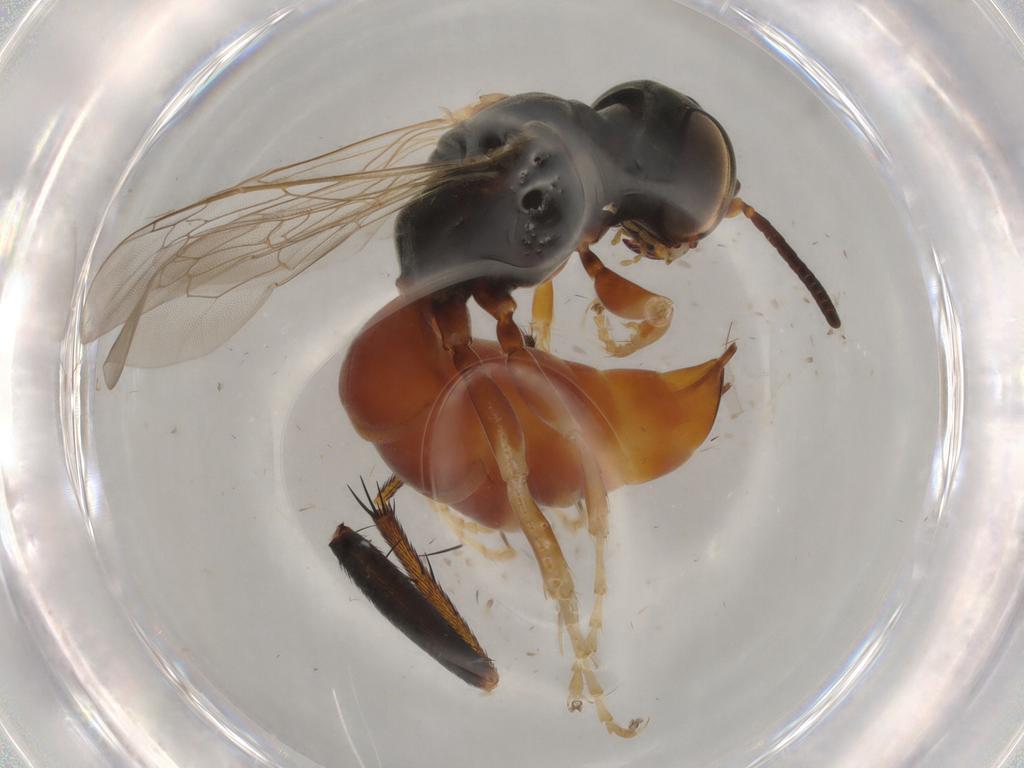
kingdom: Animalia
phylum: Arthropoda
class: Insecta
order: Hymenoptera
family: Crabronidae
